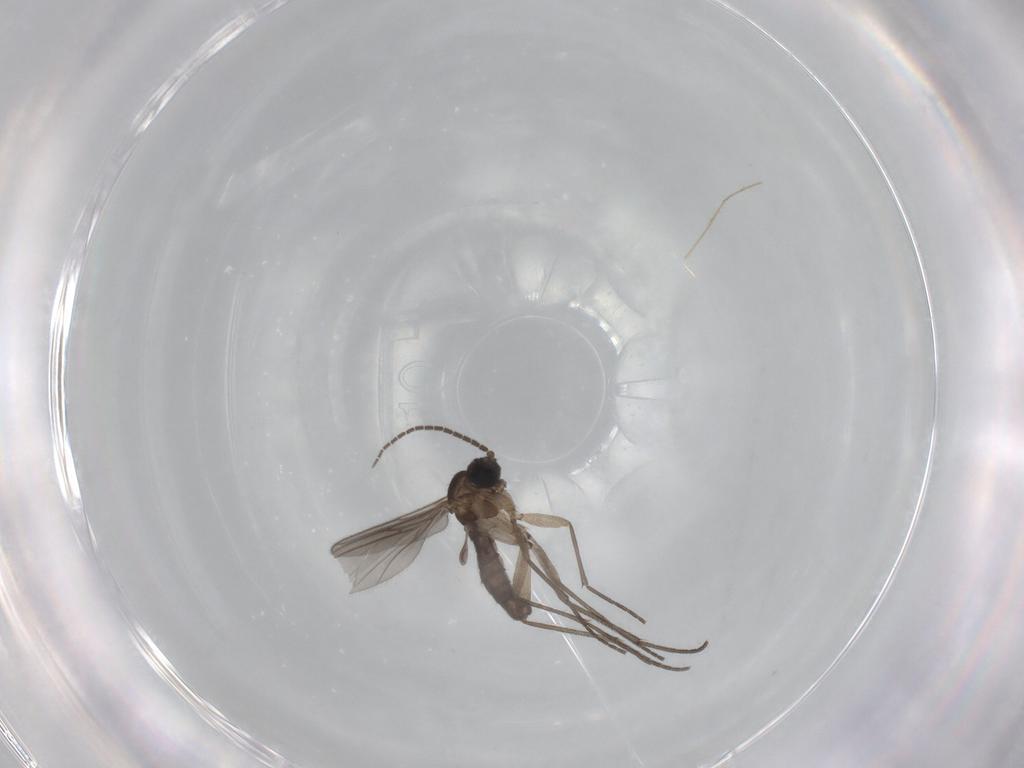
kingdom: Animalia
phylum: Arthropoda
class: Insecta
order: Diptera
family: Sciaridae
